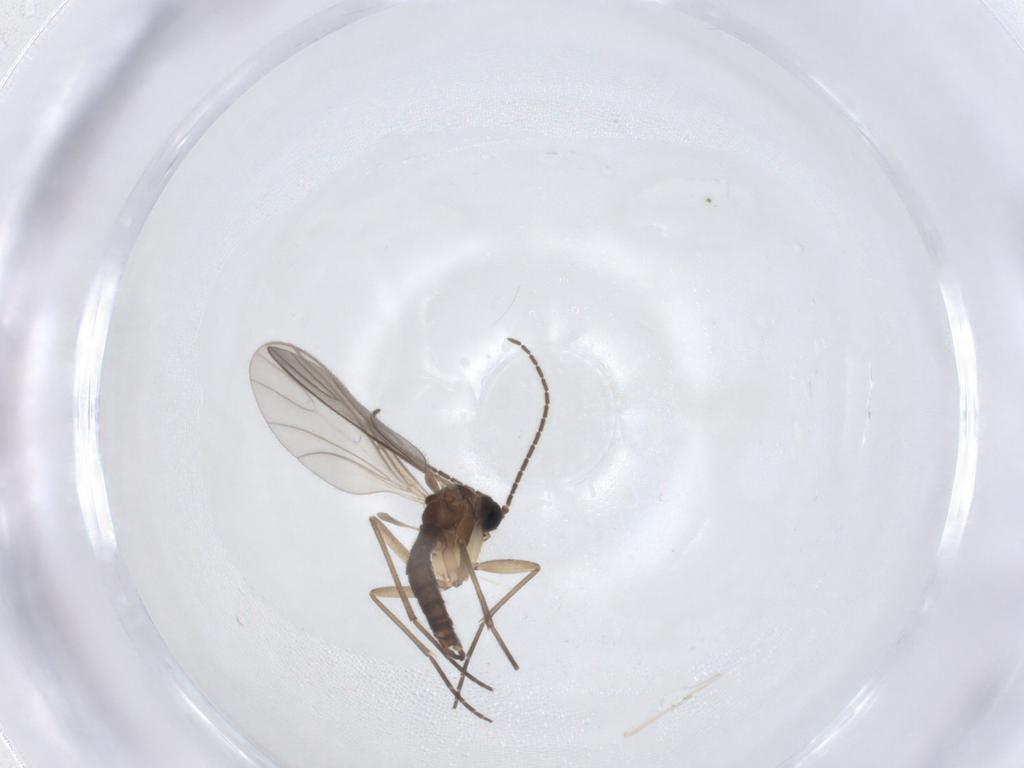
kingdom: Animalia
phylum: Arthropoda
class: Insecta
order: Diptera
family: Sciaridae
